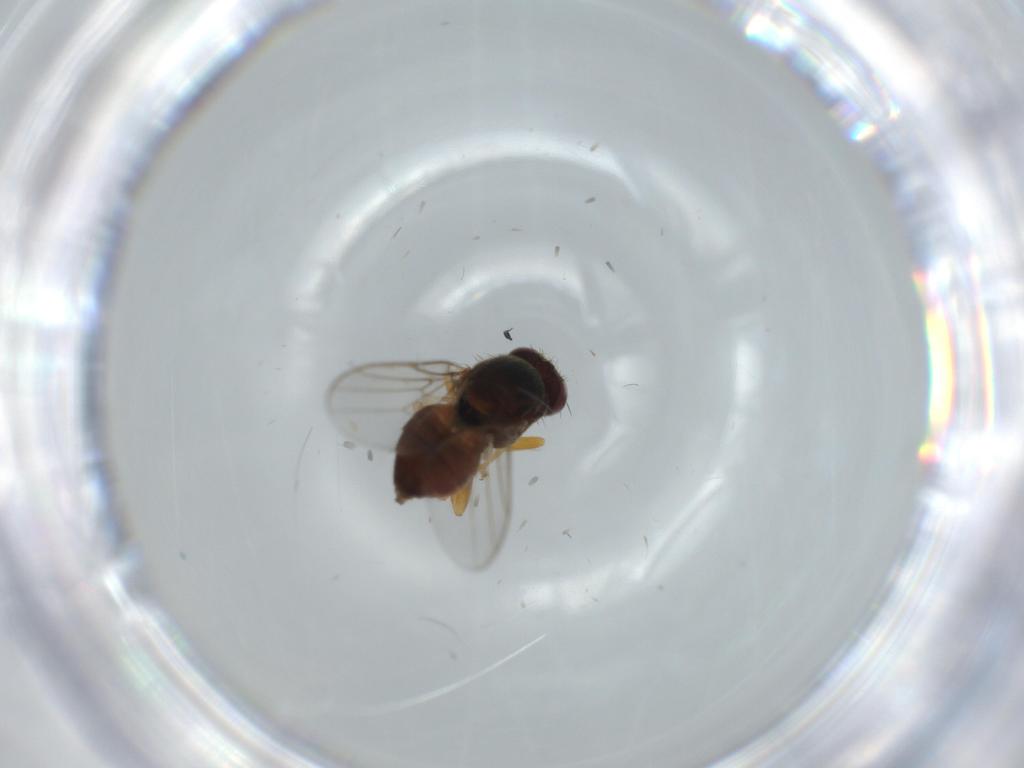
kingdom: Animalia
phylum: Arthropoda
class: Insecta
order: Diptera
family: Chloropidae
